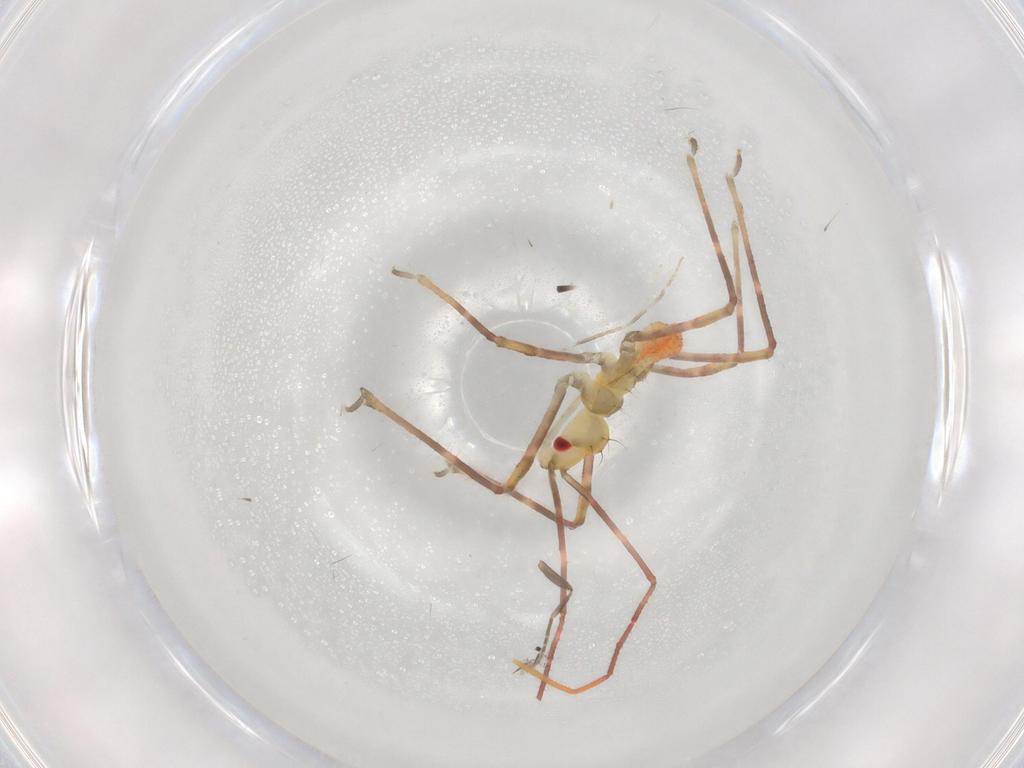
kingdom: Animalia
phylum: Arthropoda
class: Insecta
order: Hemiptera
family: Reduviidae
